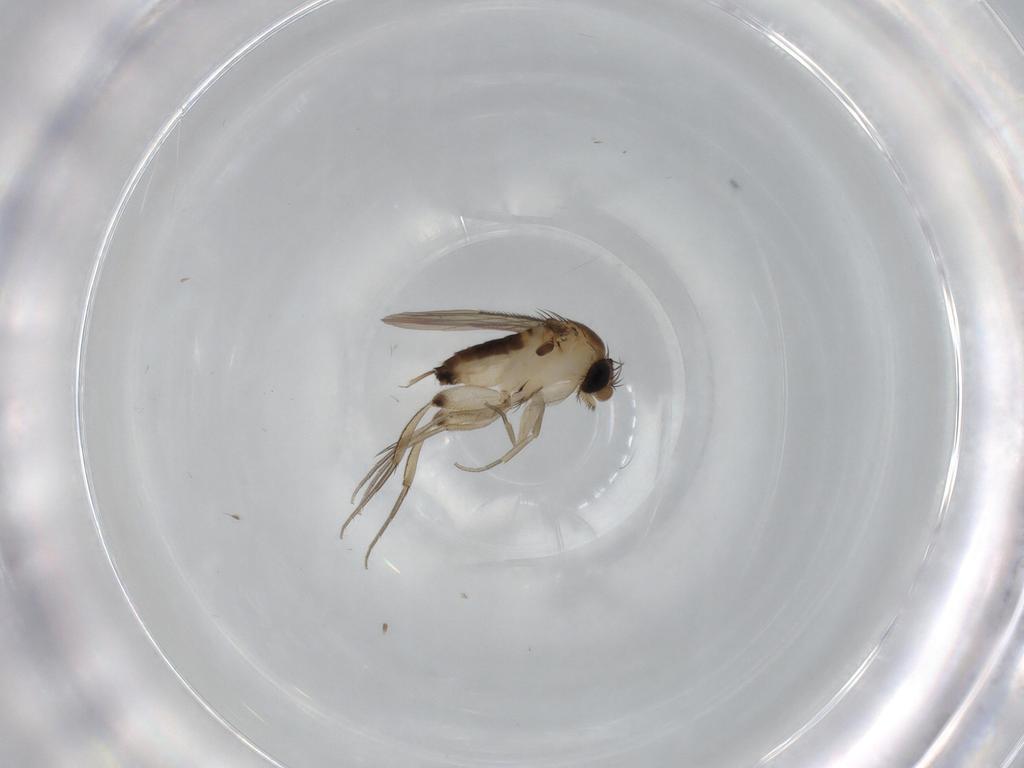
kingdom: Animalia
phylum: Arthropoda
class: Insecta
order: Diptera
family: Phoridae
